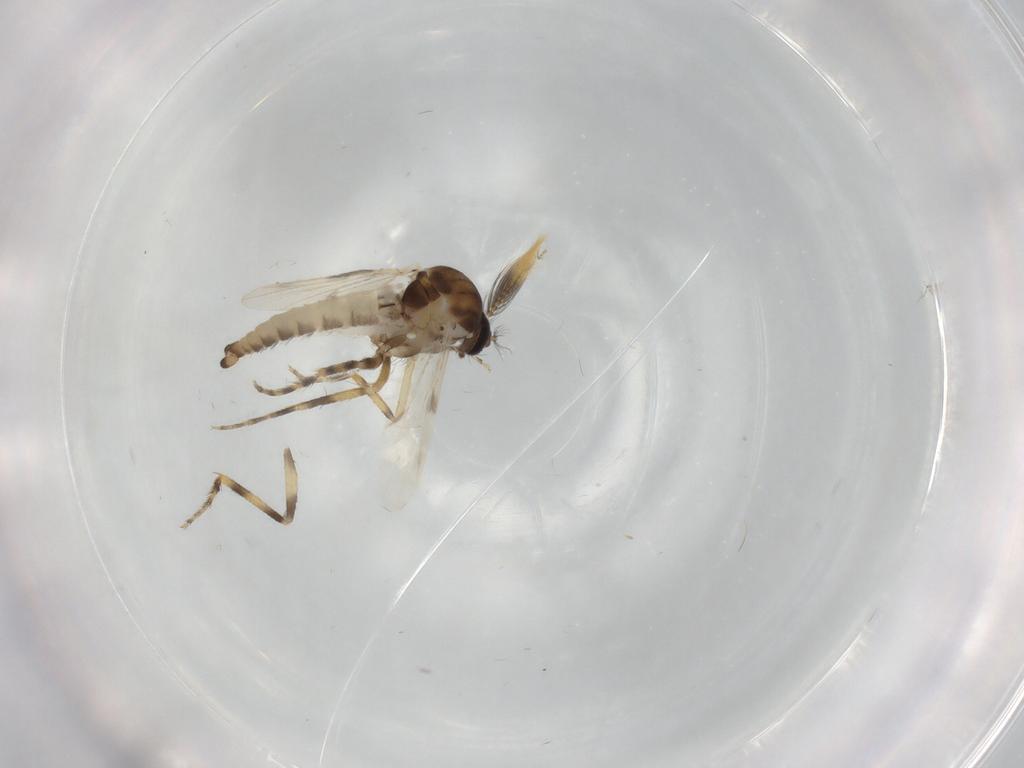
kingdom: Animalia
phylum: Arthropoda
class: Insecta
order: Diptera
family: Ceratopogonidae
